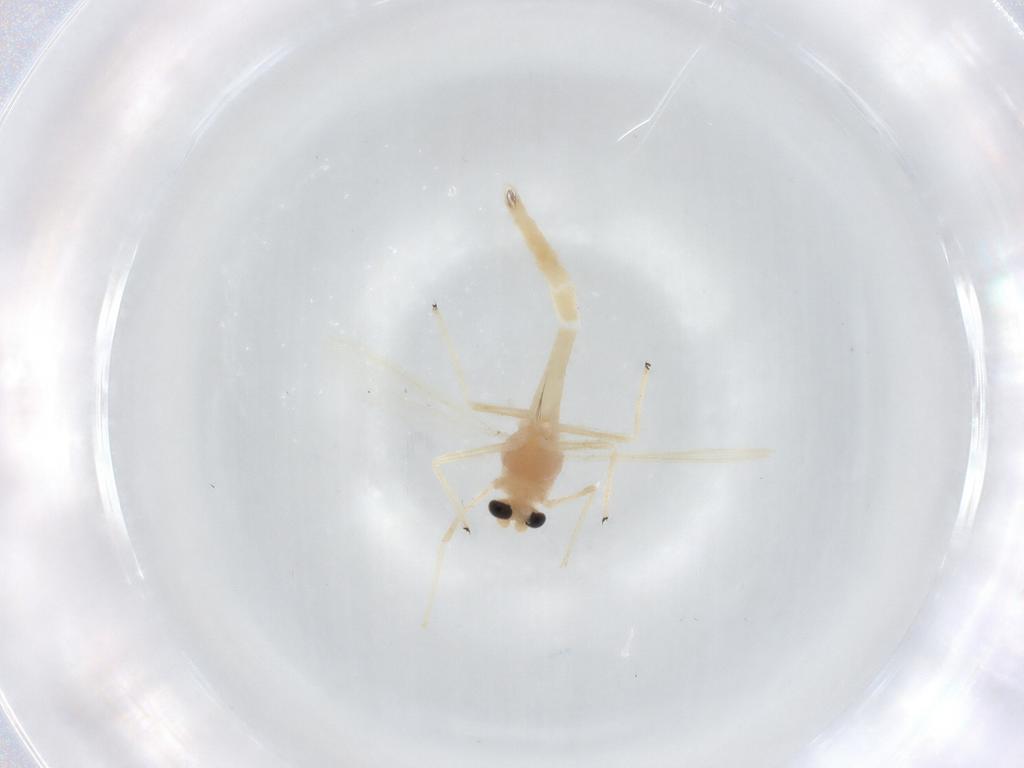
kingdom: Animalia
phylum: Arthropoda
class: Insecta
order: Diptera
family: Chironomidae
